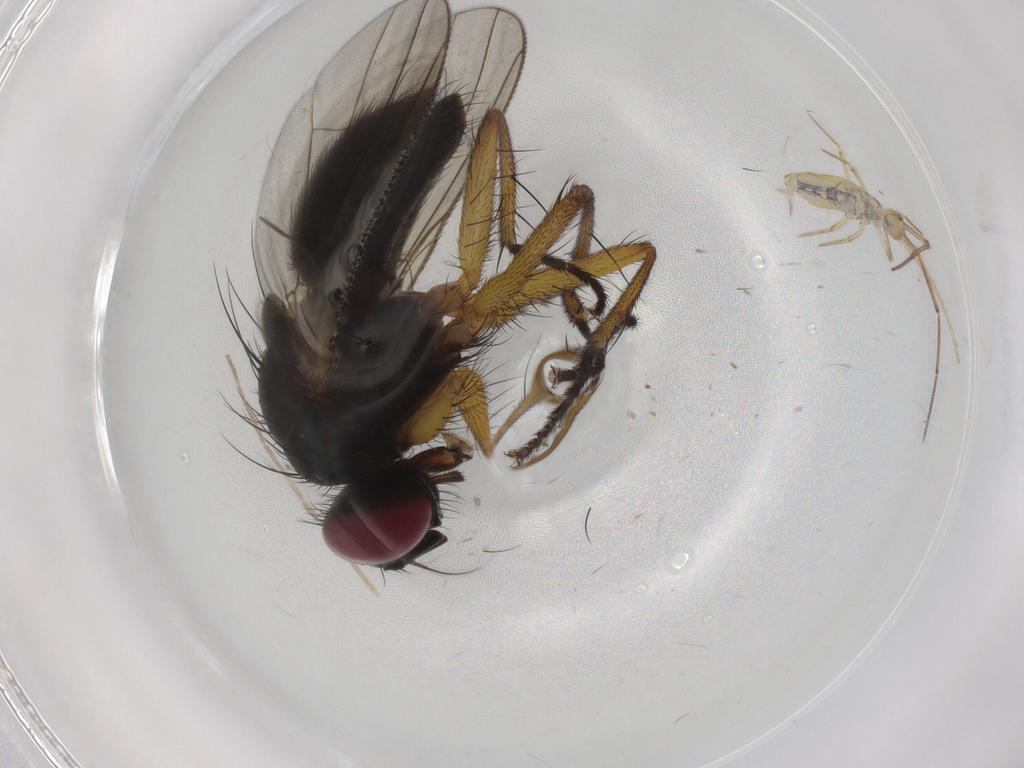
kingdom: Animalia
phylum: Arthropoda
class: Insecta
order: Diptera
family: Muscidae
